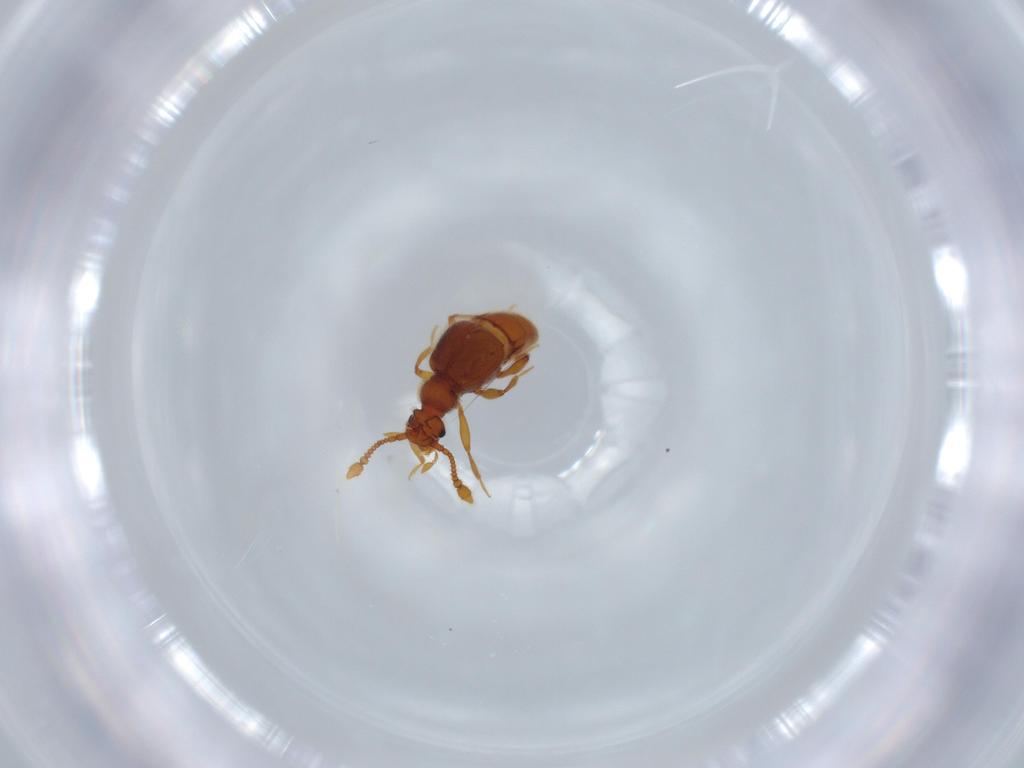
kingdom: Animalia
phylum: Arthropoda
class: Insecta
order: Coleoptera
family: Staphylinidae
